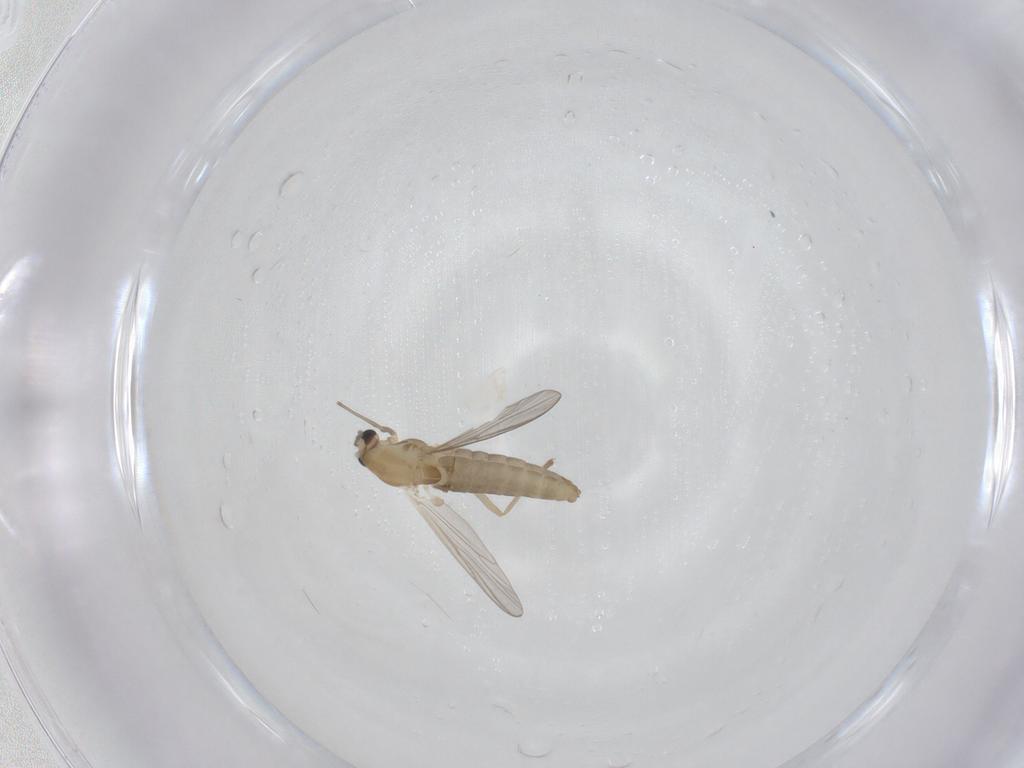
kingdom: Animalia
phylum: Arthropoda
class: Insecta
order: Diptera
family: Chironomidae
